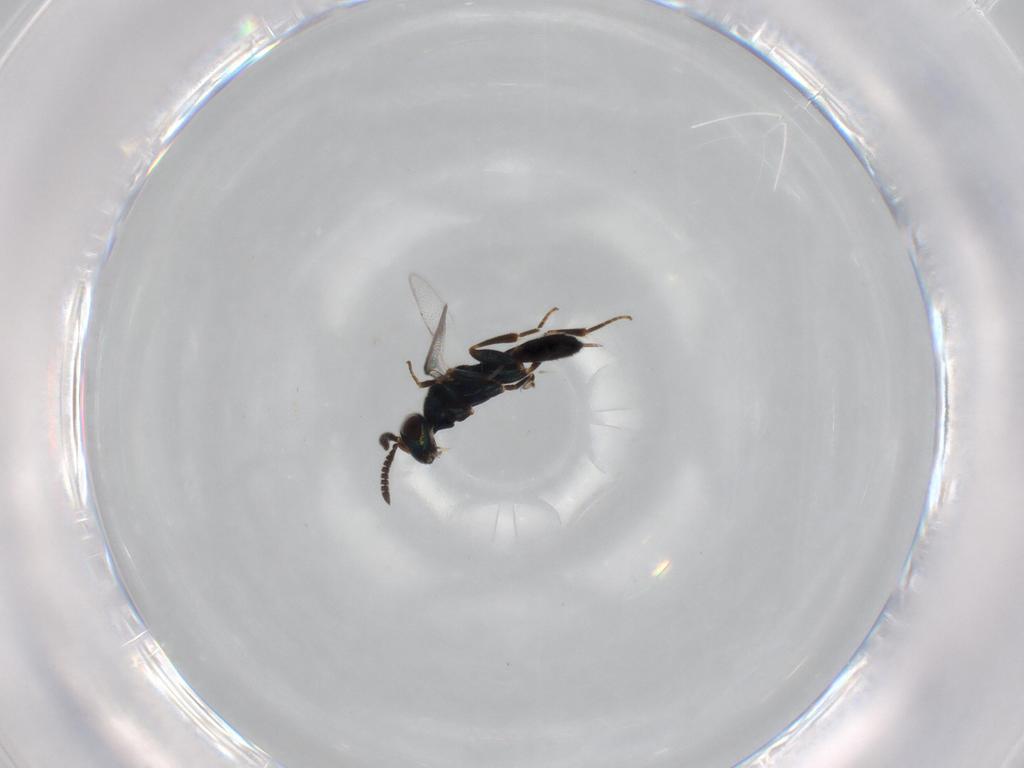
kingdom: Animalia
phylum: Arthropoda
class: Insecta
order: Hymenoptera
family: Cleonyminae
